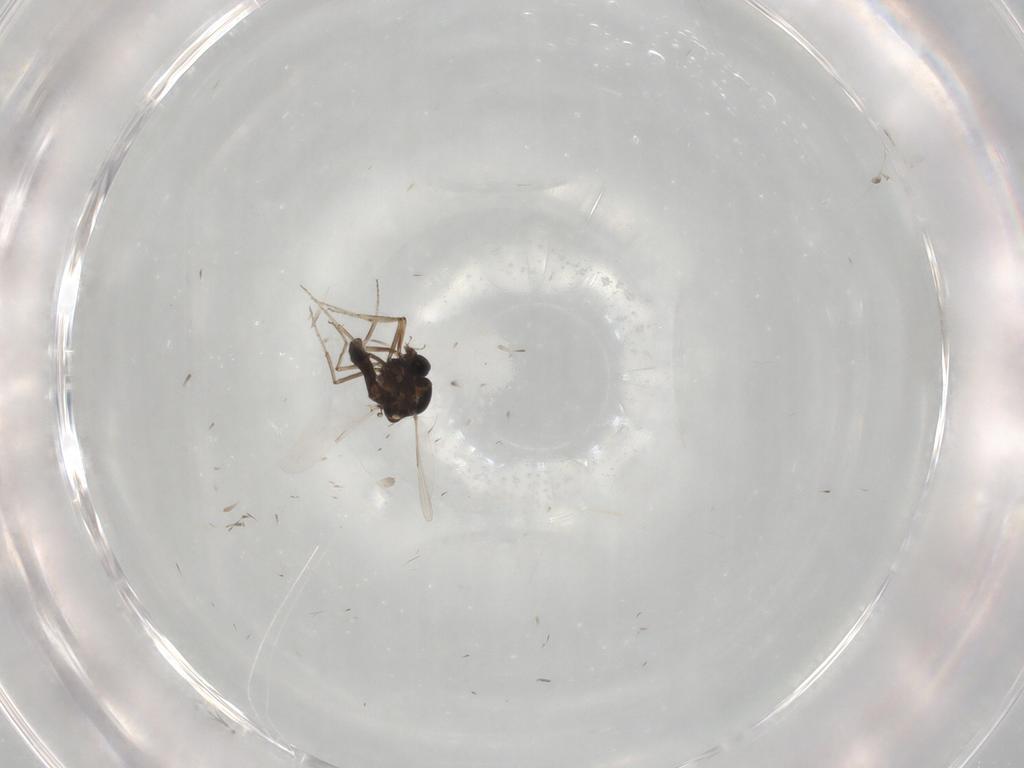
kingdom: Animalia
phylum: Arthropoda
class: Insecta
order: Diptera
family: Ceratopogonidae
